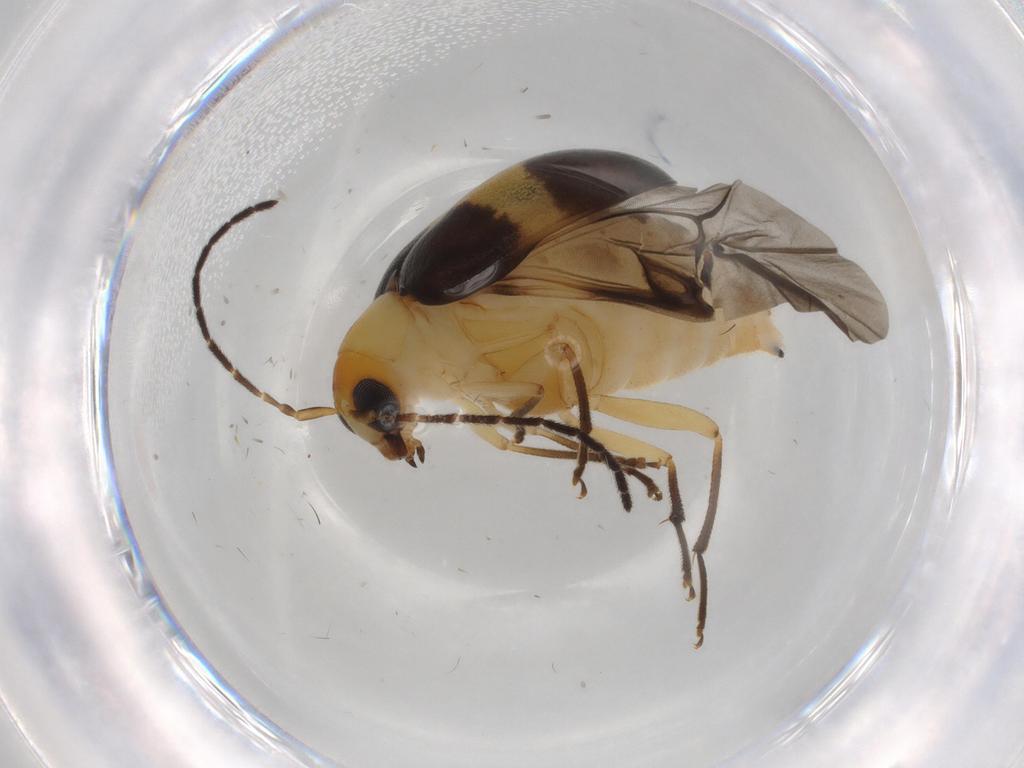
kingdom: Animalia
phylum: Arthropoda
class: Insecta
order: Coleoptera
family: Chrysomelidae
